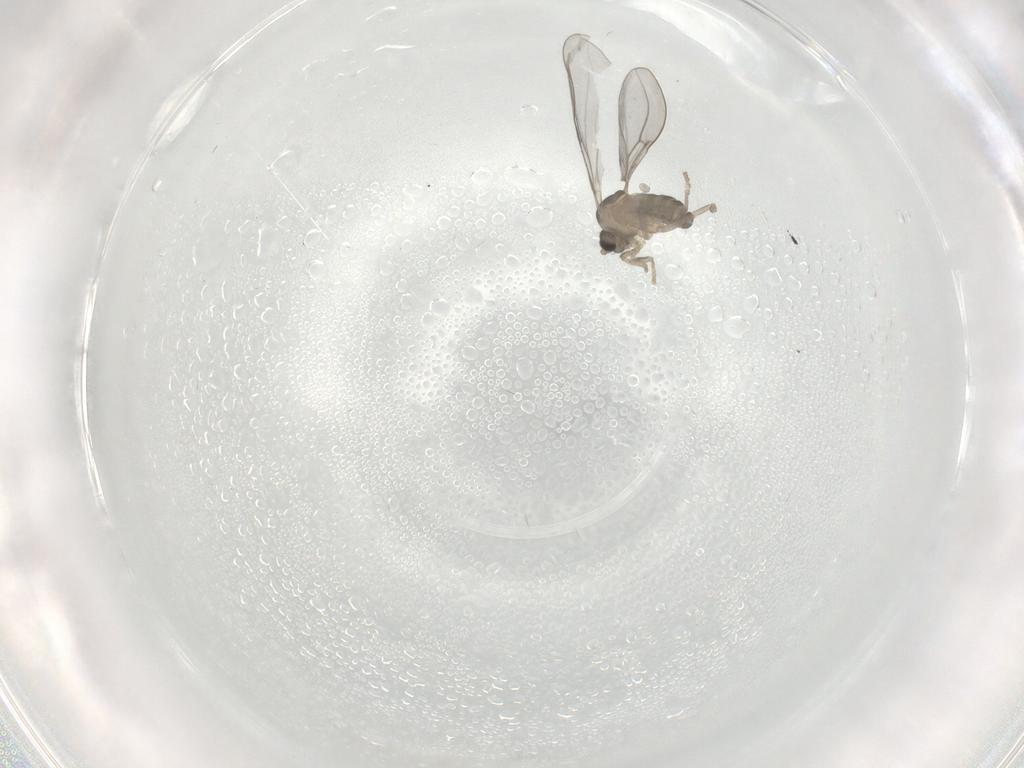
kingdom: Animalia
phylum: Arthropoda
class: Insecta
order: Diptera
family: Cecidomyiidae
